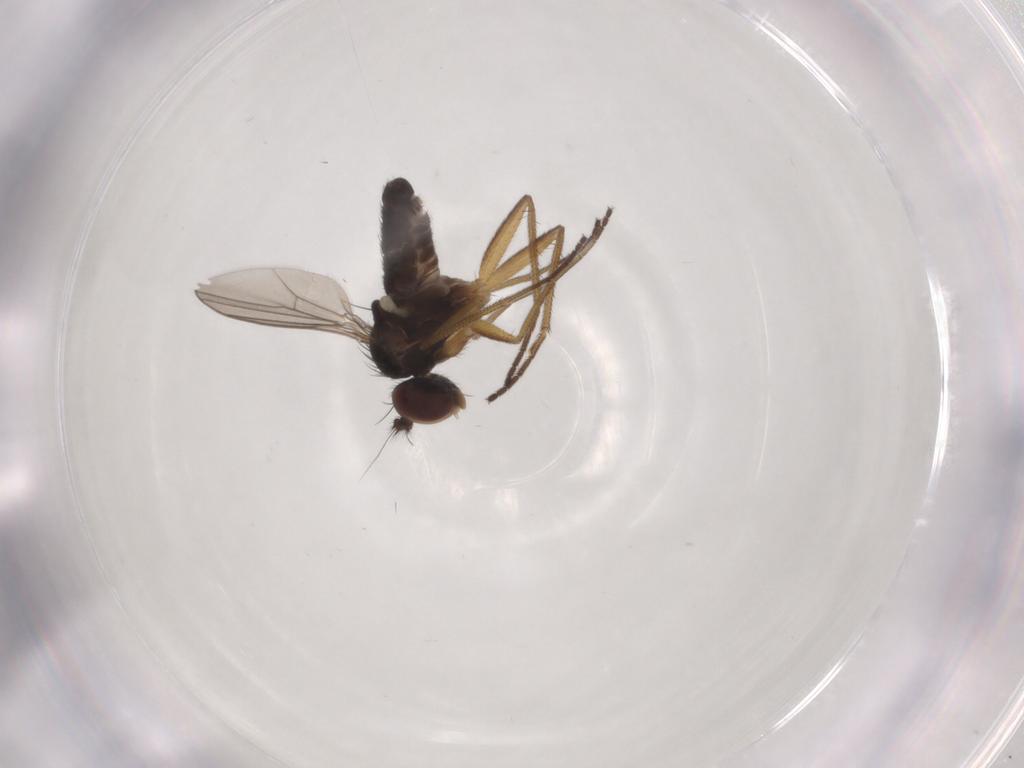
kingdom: Animalia
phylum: Arthropoda
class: Insecta
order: Diptera
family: Dolichopodidae
